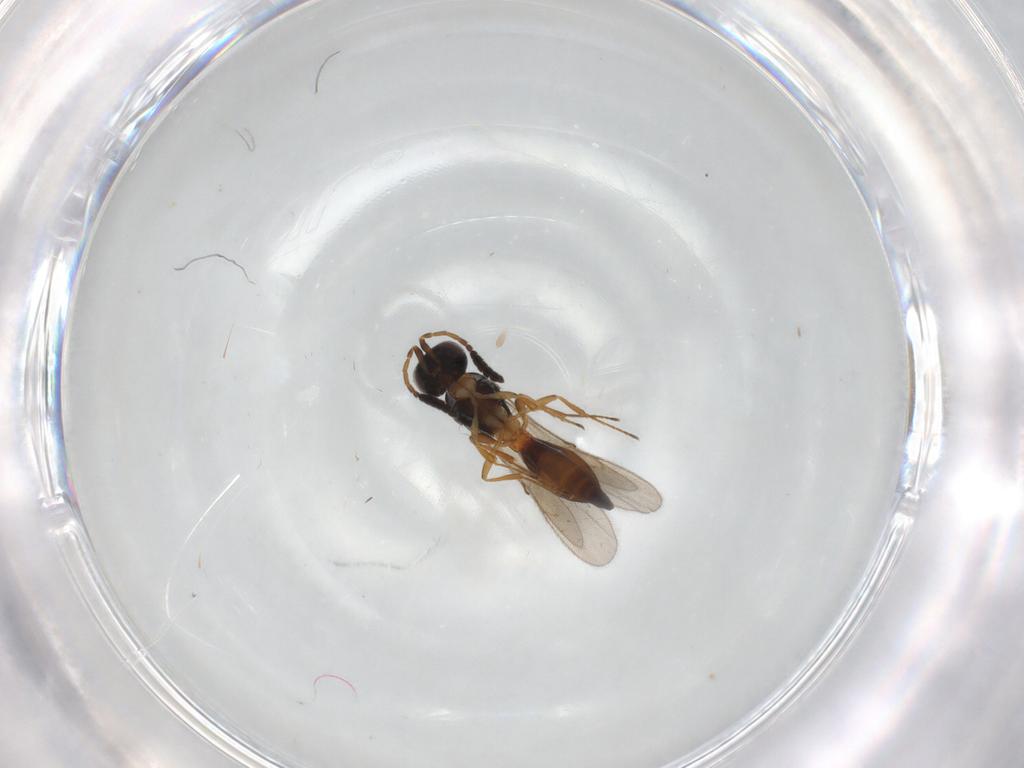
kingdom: Animalia
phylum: Arthropoda
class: Insecta
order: Hymenoptera
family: Scelionidae
